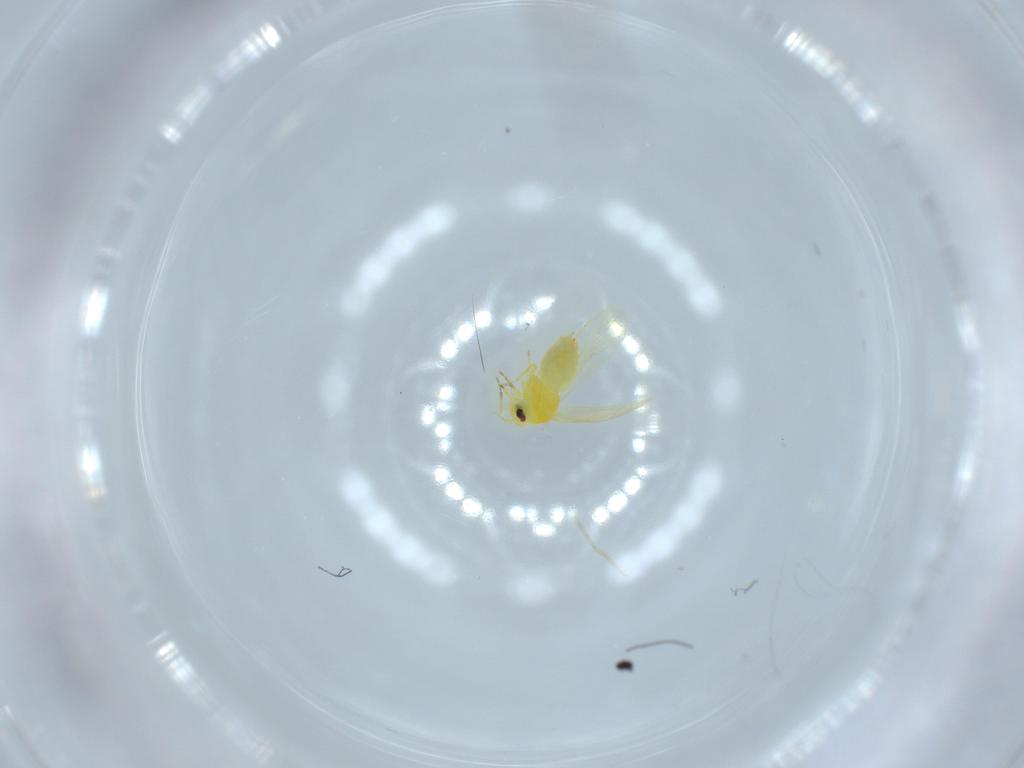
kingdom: Animalia
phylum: Arthropoda
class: Insecta
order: Hemiptera
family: Aleyrodidae
